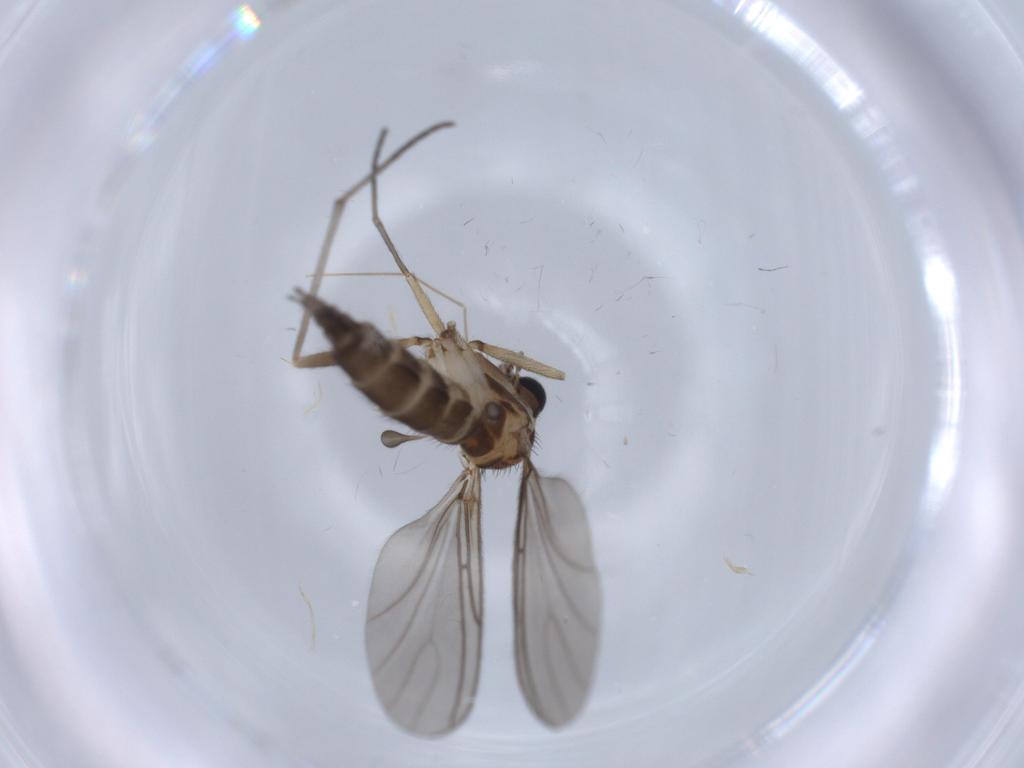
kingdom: Animalia
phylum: Arthropoda
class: Insecta
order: Diptera
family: Sciaridae
